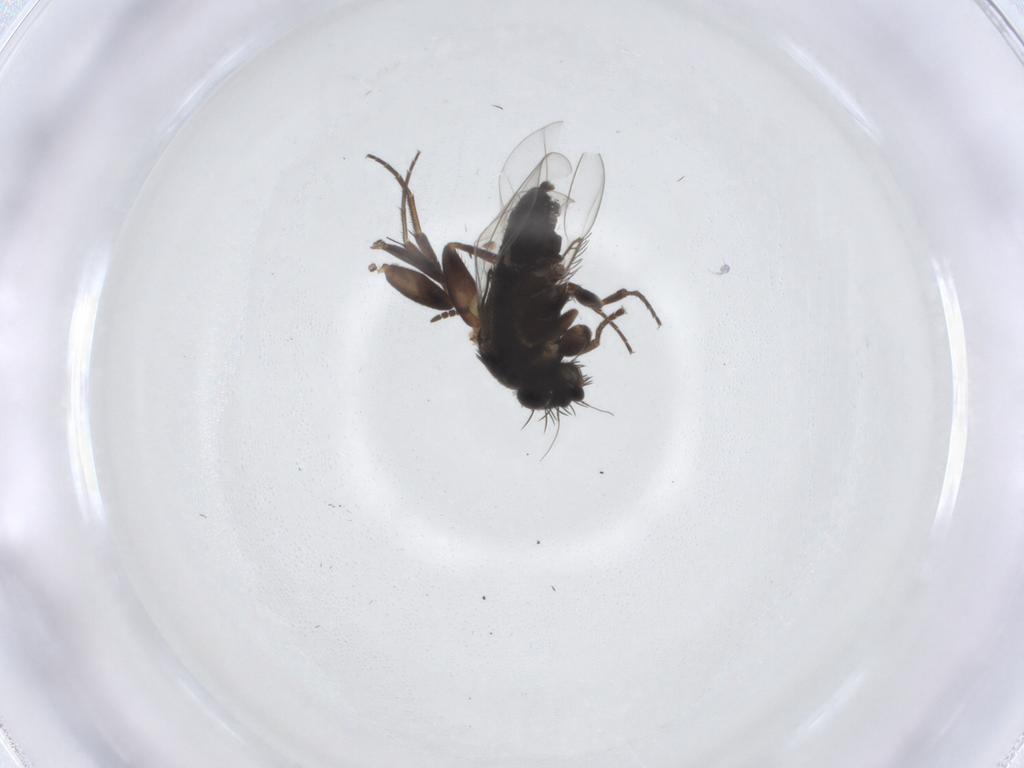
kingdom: Animalia
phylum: Arthropoda
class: Insecta
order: Diptera
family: Phoridae
